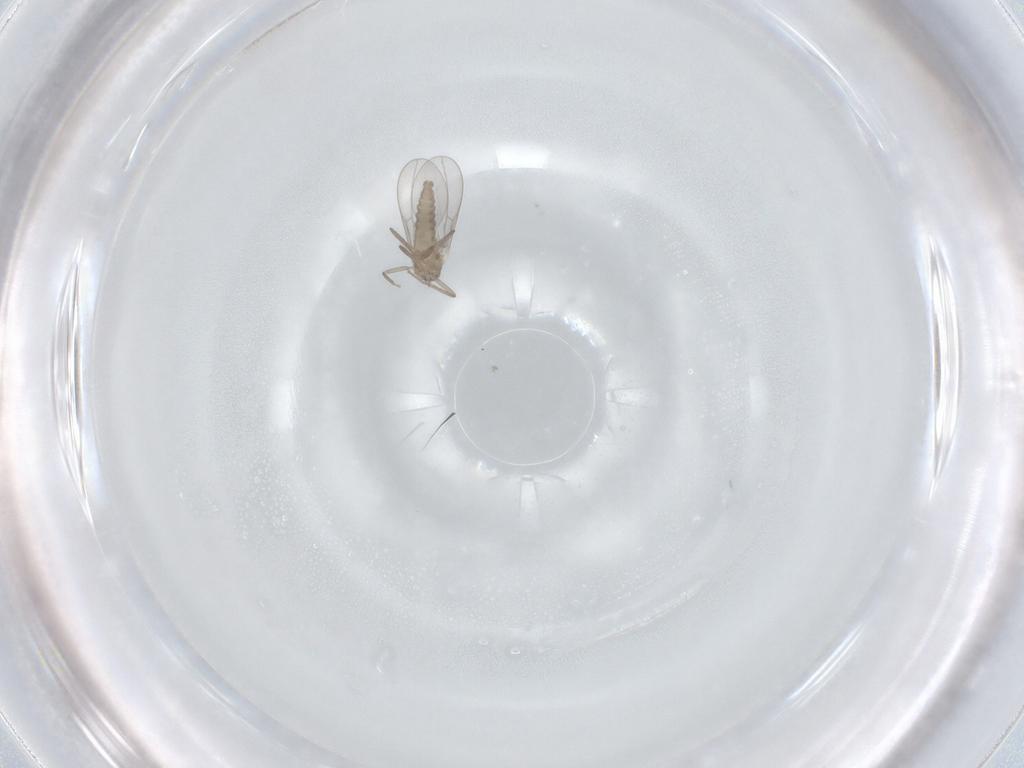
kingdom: Animalia
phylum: Arthropoda
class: Insecta
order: Diptera
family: Cecidomyiidae
